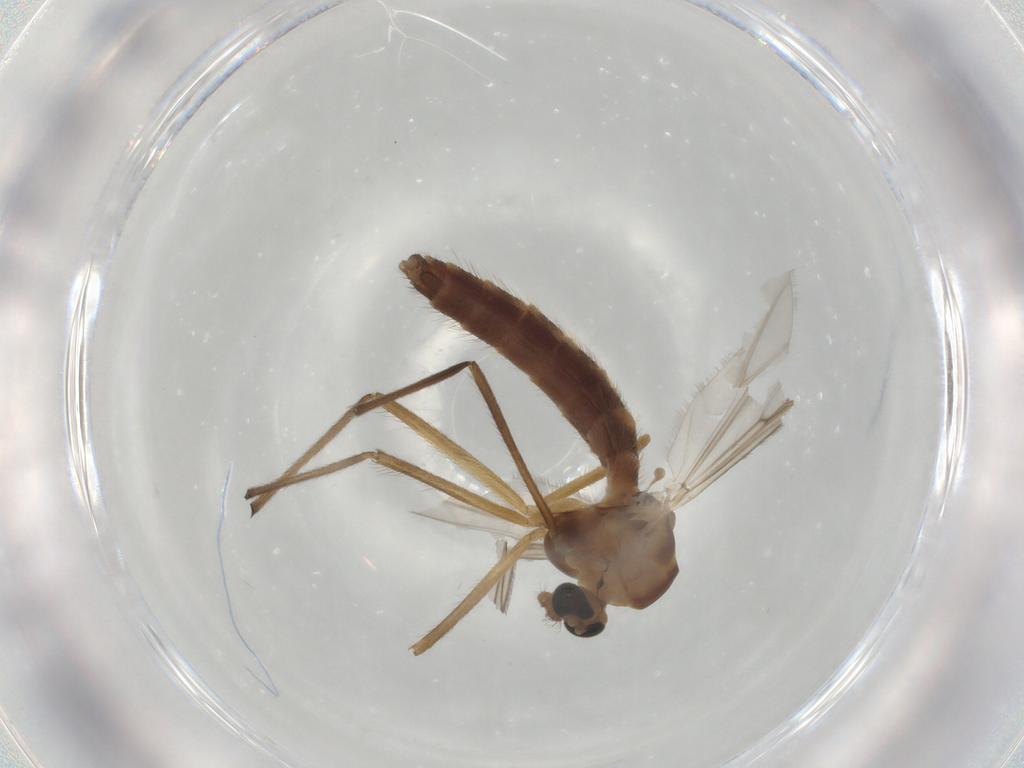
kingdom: Animalia
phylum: Arthropoda
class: Insecta
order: Diptera
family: Chironomidae
